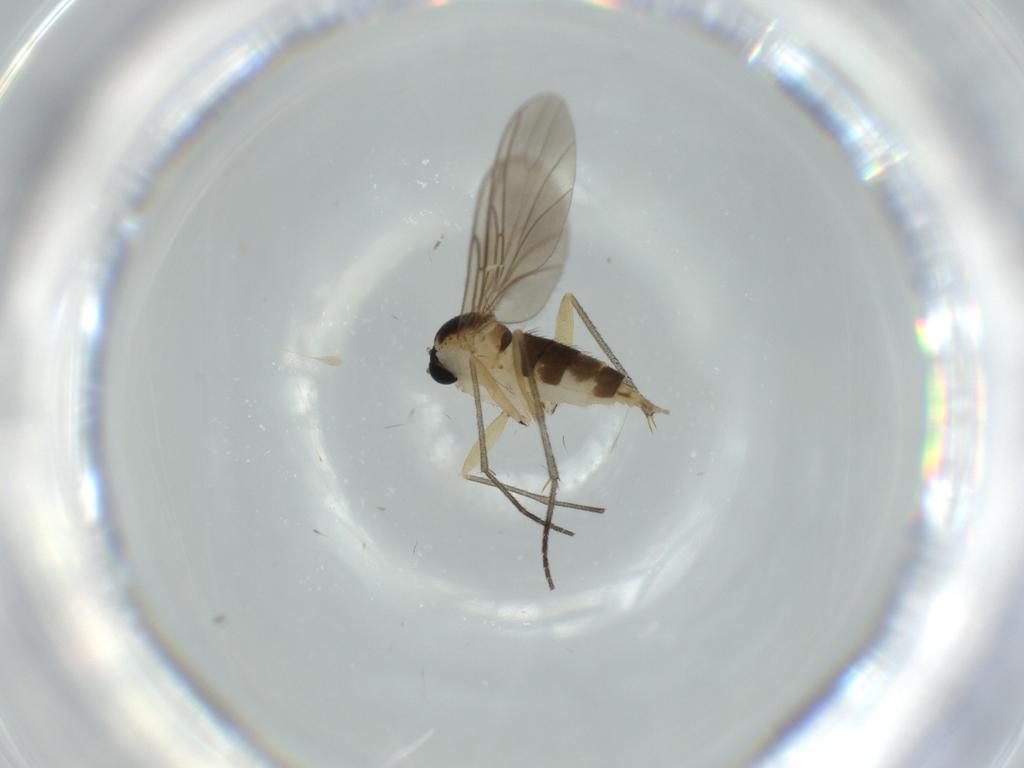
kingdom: Animalia
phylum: Arthropoda
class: Insecta
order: Diptera
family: Sciaridae
